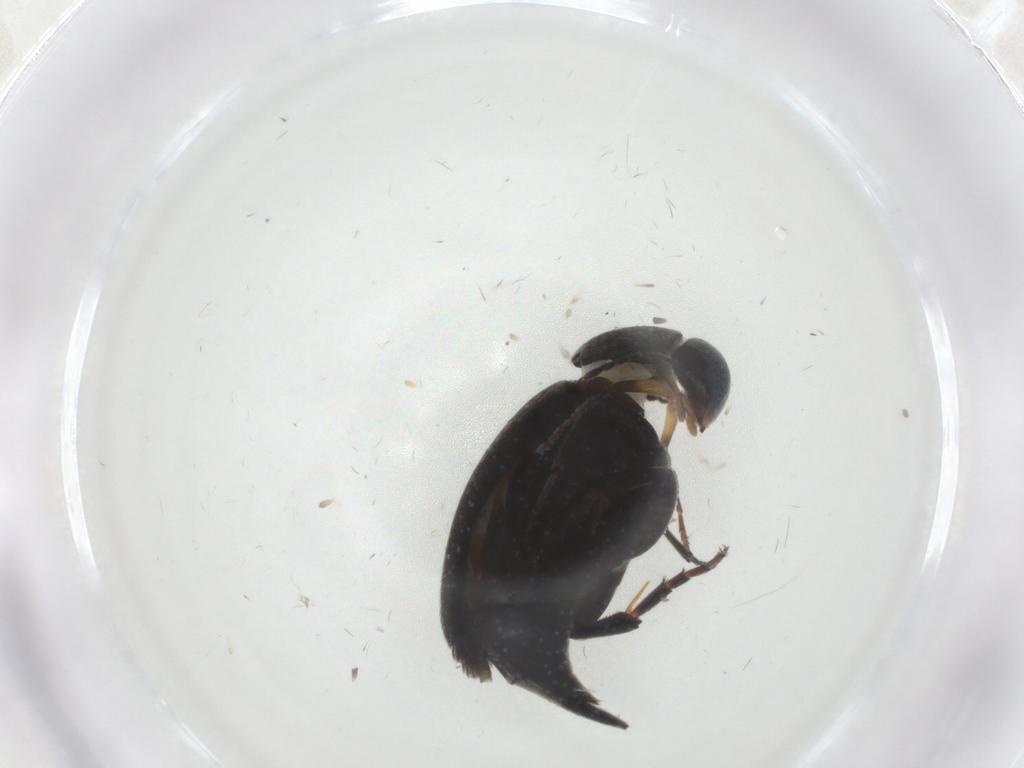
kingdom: Animalia
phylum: Arthropoda
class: Insecta
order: Coleoptera
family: Mordellidae
